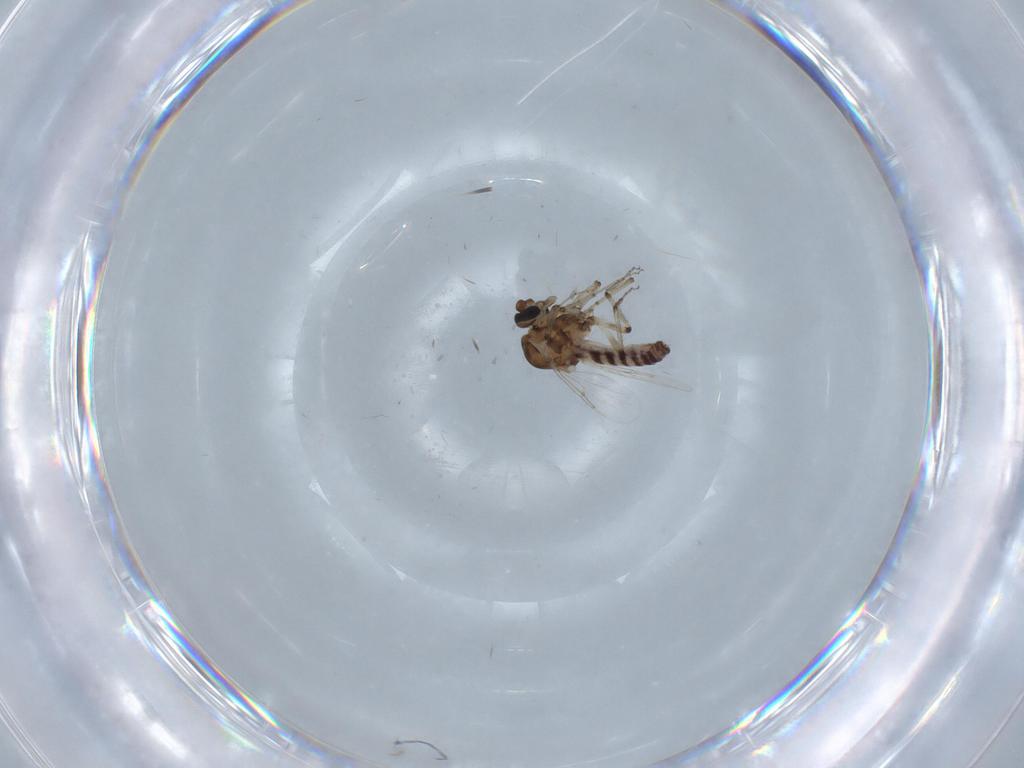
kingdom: Animalia
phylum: Arthropoda
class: Insecta
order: Diptera
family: Ceratopogonidae
